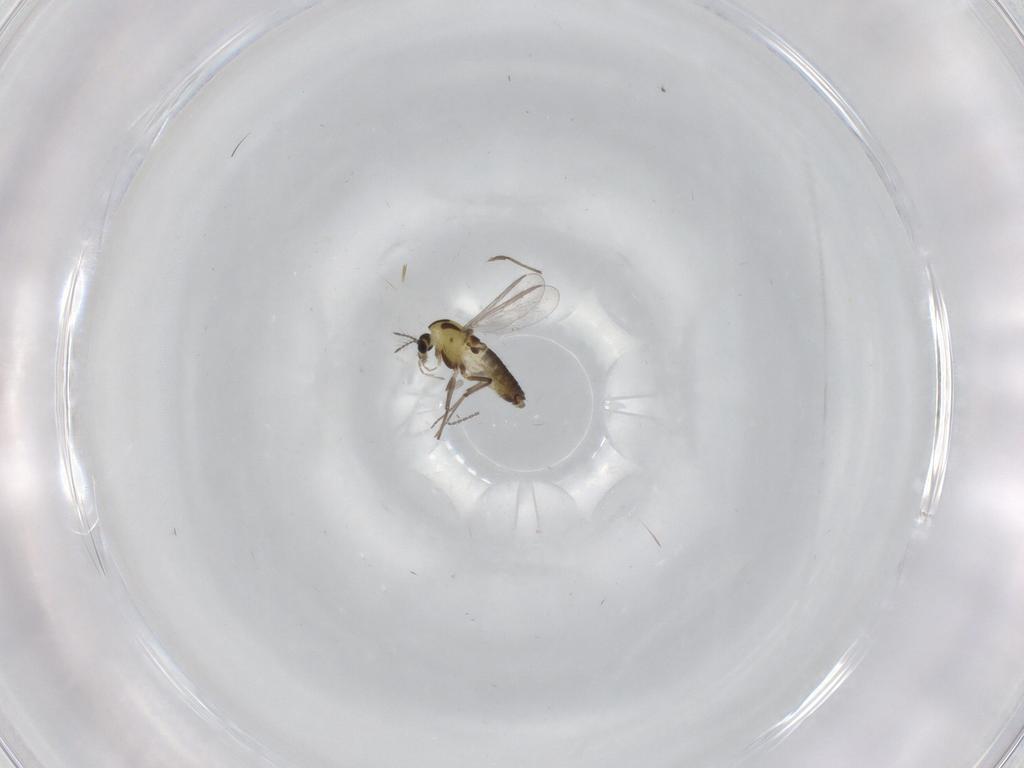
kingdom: Animalia
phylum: Arthropoda
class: Insecta
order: Diptera
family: Chironomidae
